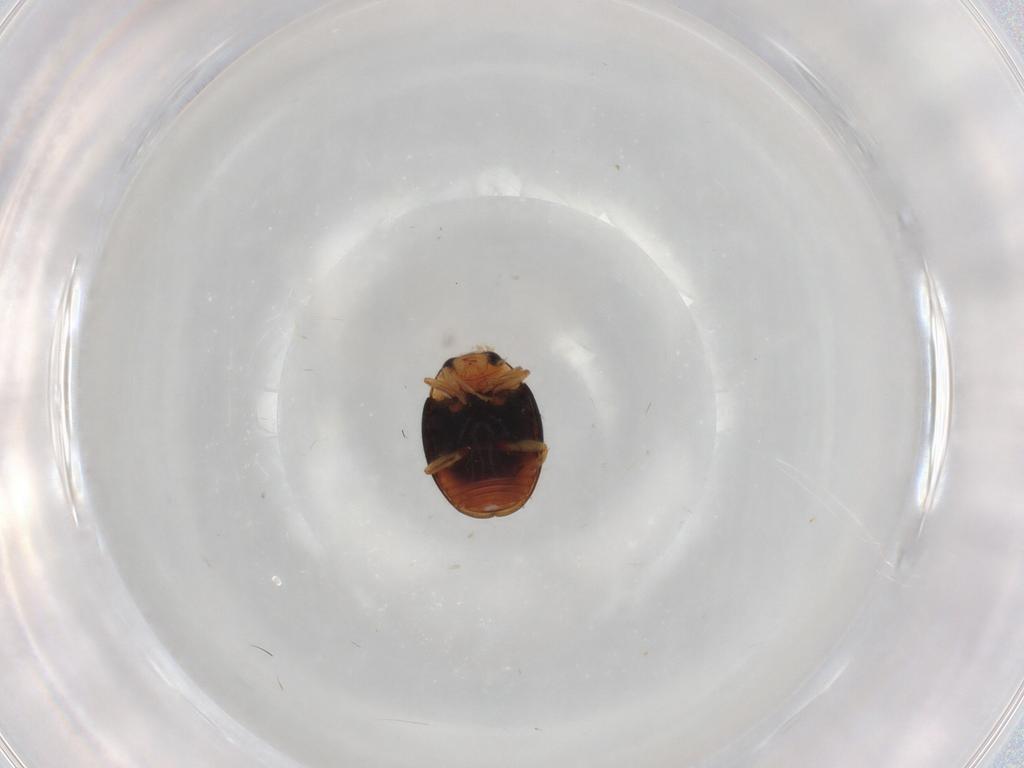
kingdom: Animalia
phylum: Arthropoda
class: Insecta
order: Coleoptera
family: Coccinellidae
